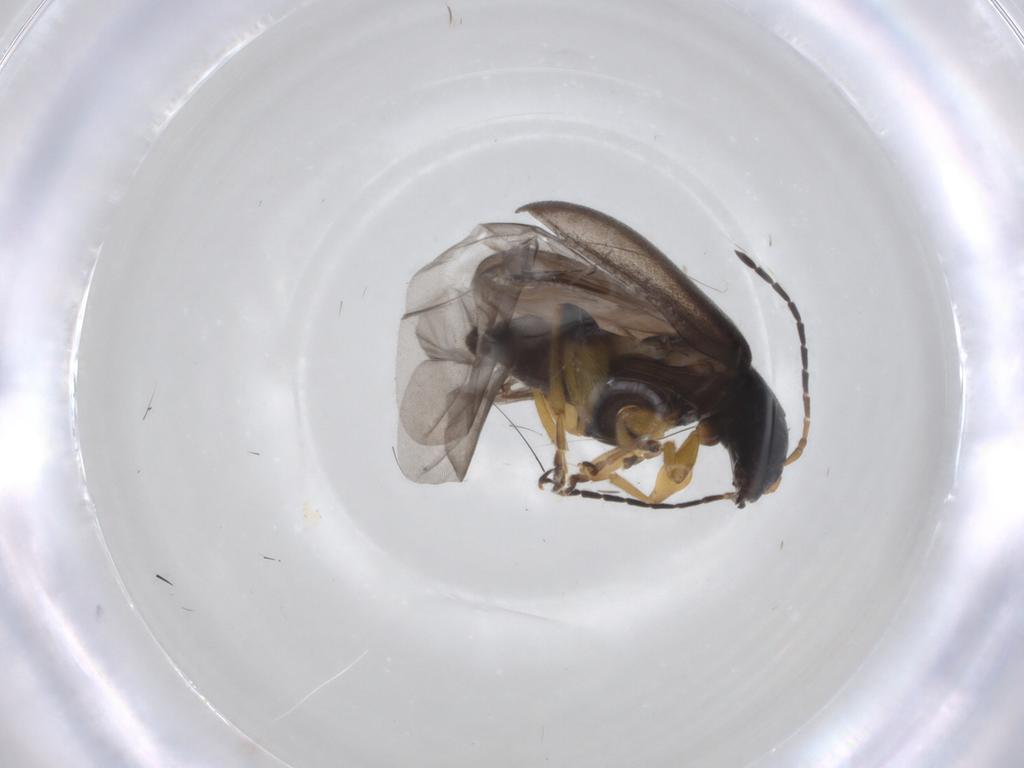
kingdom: Animalia
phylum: Arthropoda
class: Insecta
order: Coleoptera
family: Chrysomelidae
